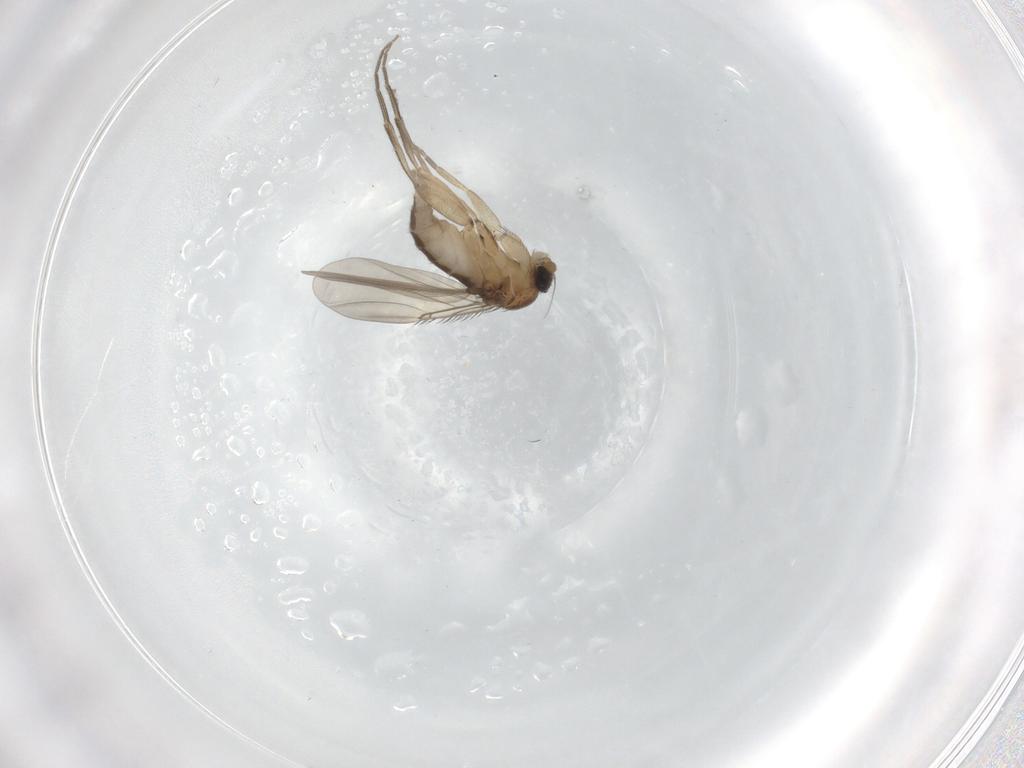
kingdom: Animalia
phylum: Arthropoda
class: Insecta
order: Diptera
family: Phoridae
